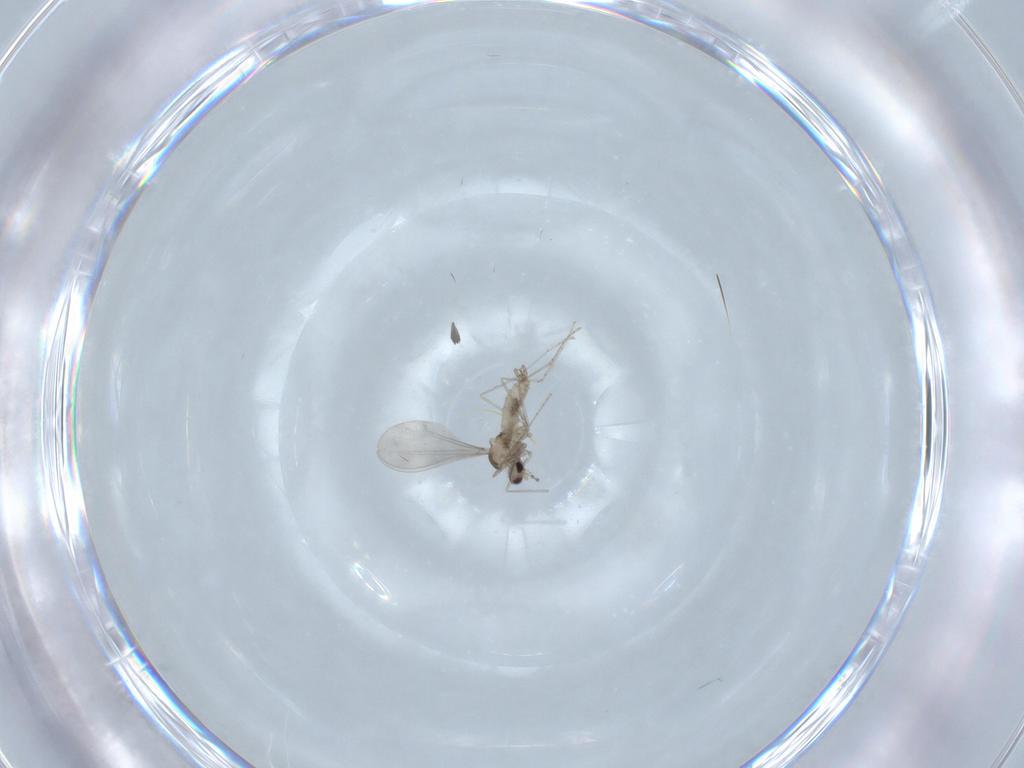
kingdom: Animalia
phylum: Arthropoda
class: Insecta
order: Diptera
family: Cecidomyiidae
